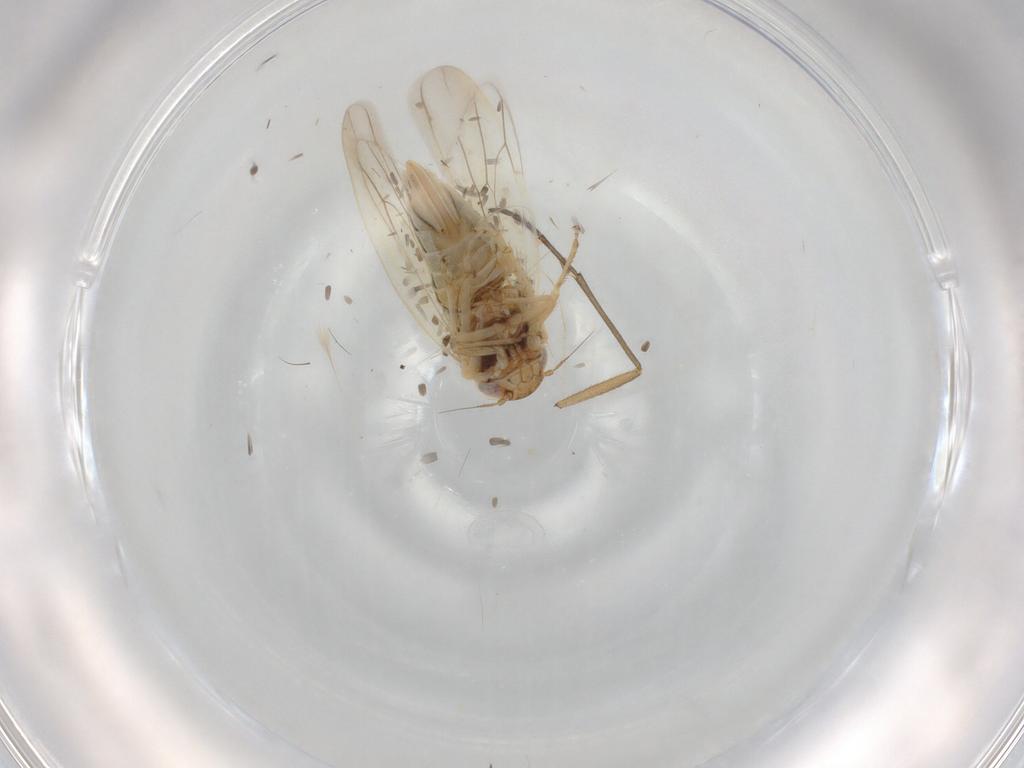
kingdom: Animalia
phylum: Arthropoda
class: Insecta
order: Hemiptera
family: Cicadellidae
